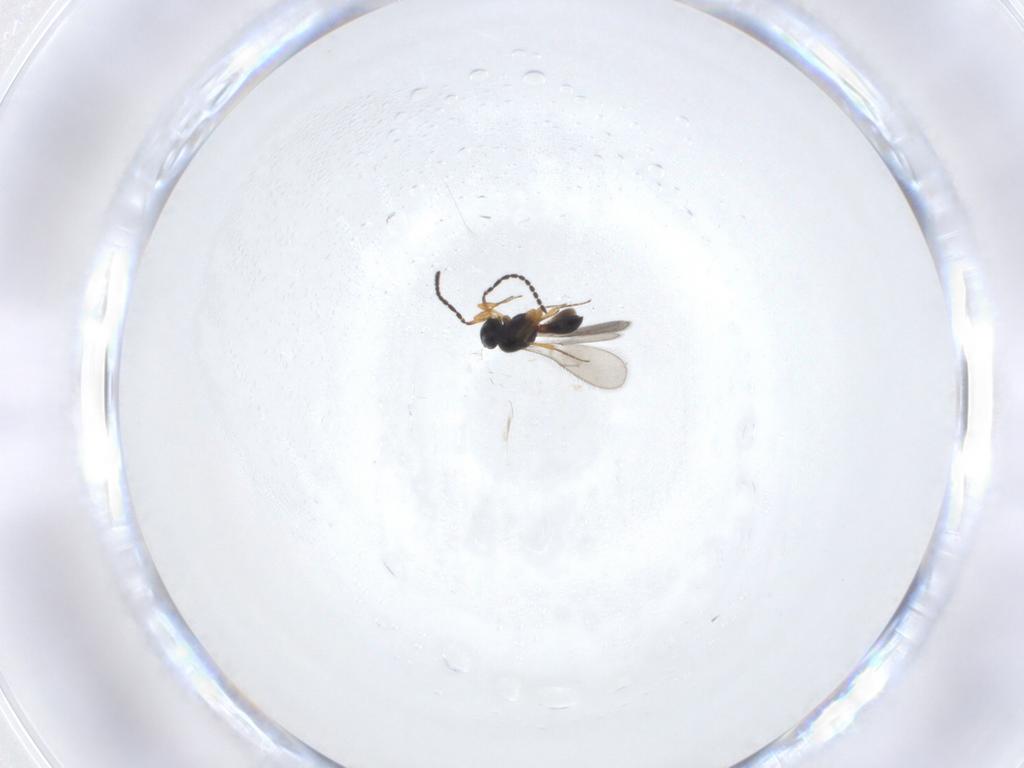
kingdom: Animalia
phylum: Arthropoda
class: Insecta
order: Hymenoptera
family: Scelionidae
